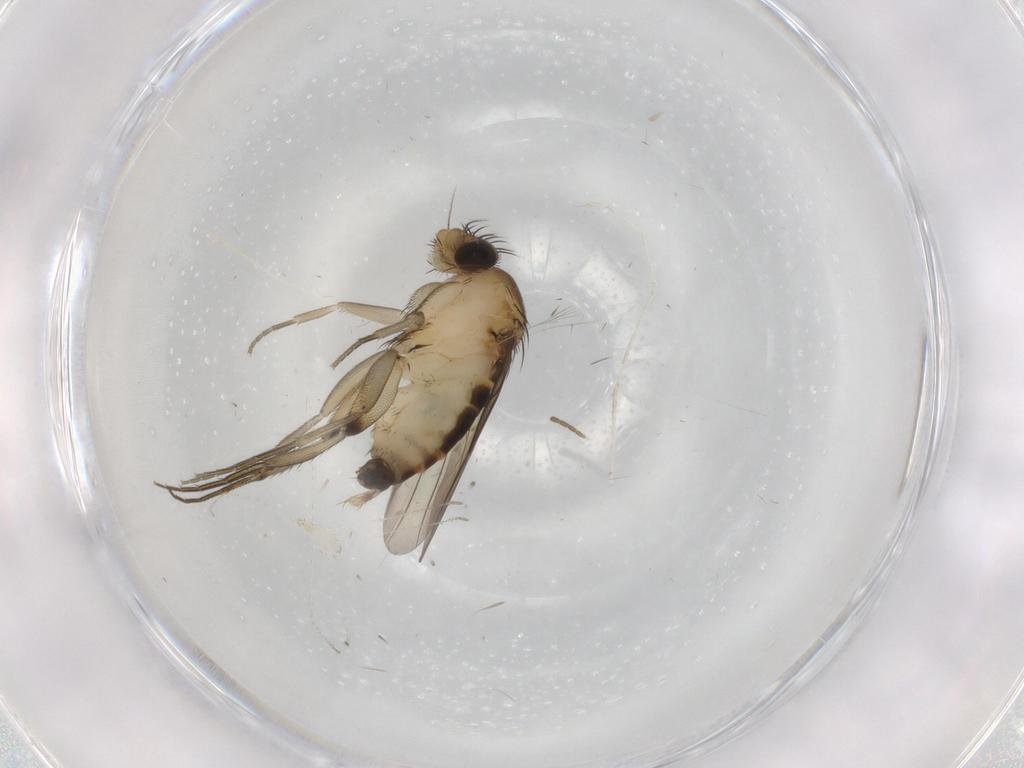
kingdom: Animalia
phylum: Arthropoda
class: Insecta
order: Diptera
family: Phoridae
